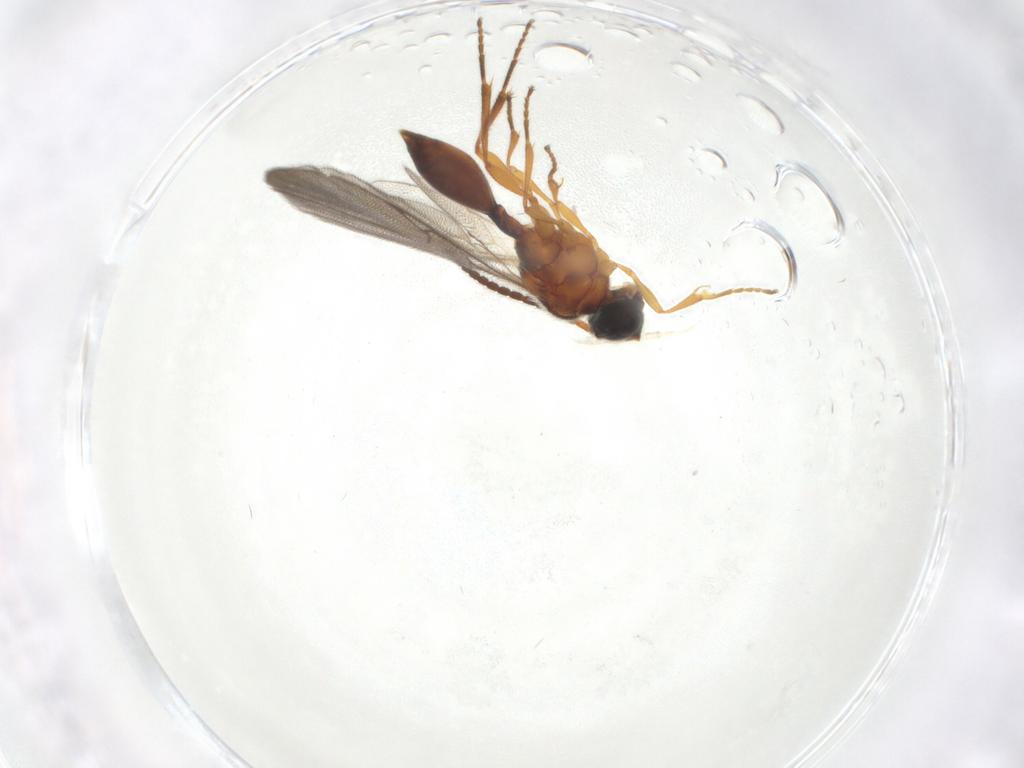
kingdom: Animalia
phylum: Arthropoda
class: Insecta
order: Hymenoptera
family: Diapriidae
